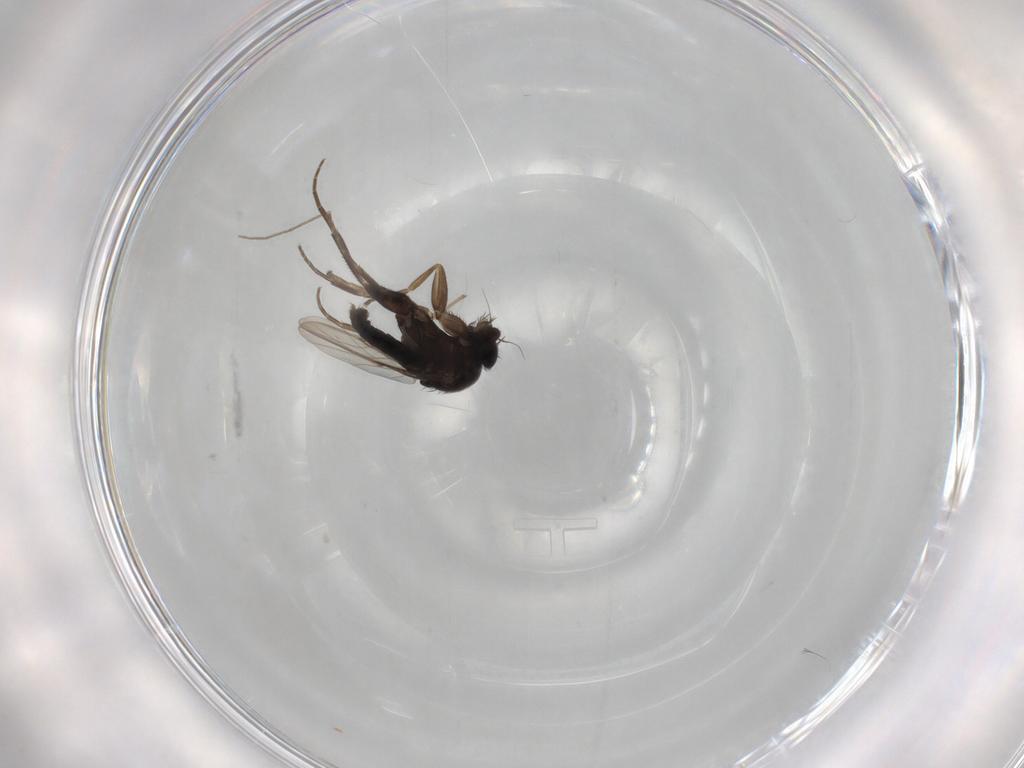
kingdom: Animalia
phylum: Arthropoda
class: Insecta
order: Diptera
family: Phoridae
